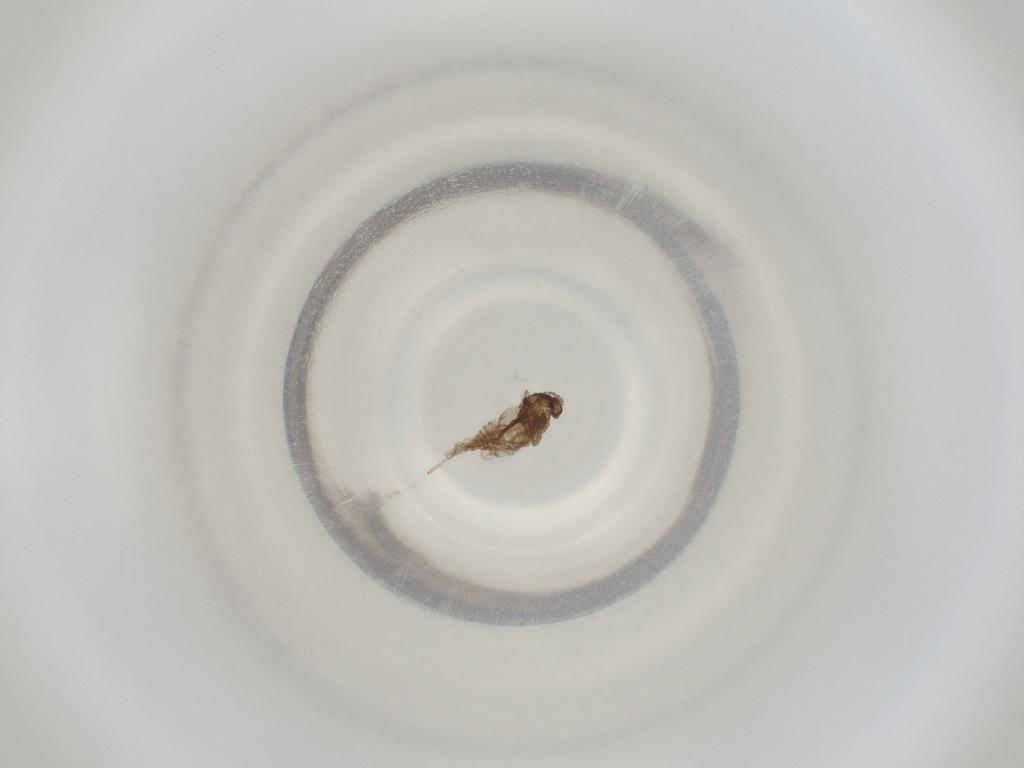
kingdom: Animalia
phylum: Arthropoda
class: Insecta
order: Diptera
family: Cecidomyiidae
